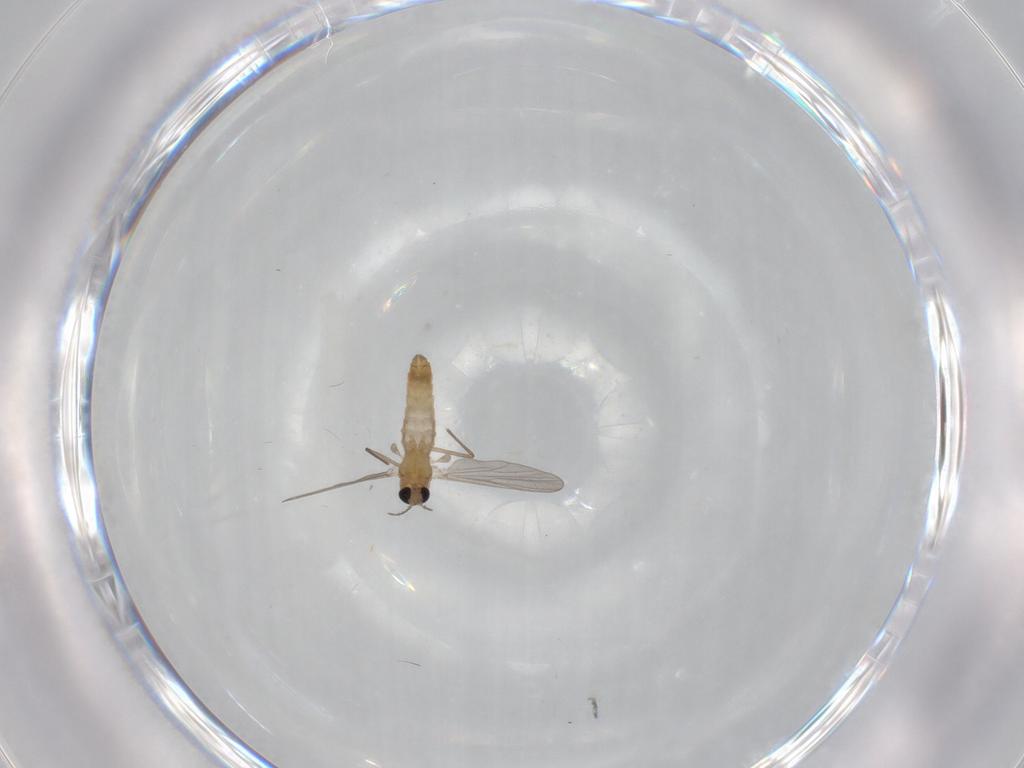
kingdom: Animalia
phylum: Arthropoda
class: Insecta
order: Diptera
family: Chironomidae
